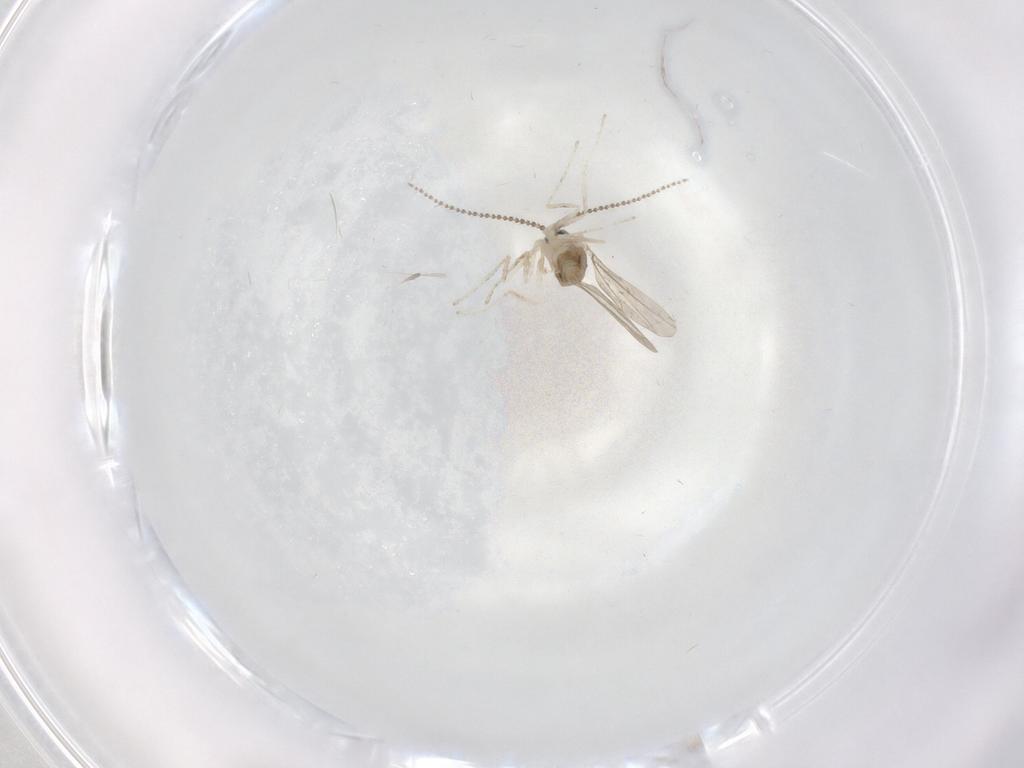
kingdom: Animalia
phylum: Arthropoda
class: Insecta
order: Diptera
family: Cecidomyiidae
